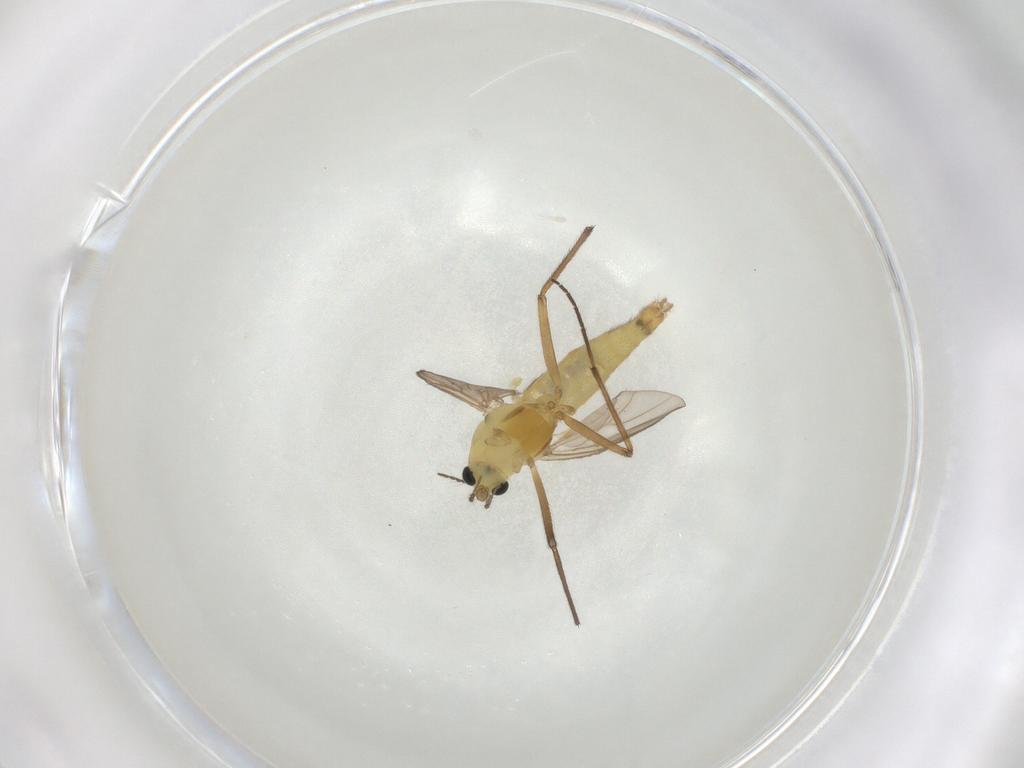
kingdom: Animalia
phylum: Arthropoda
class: Insecta
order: Diptera
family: Chironomidae
